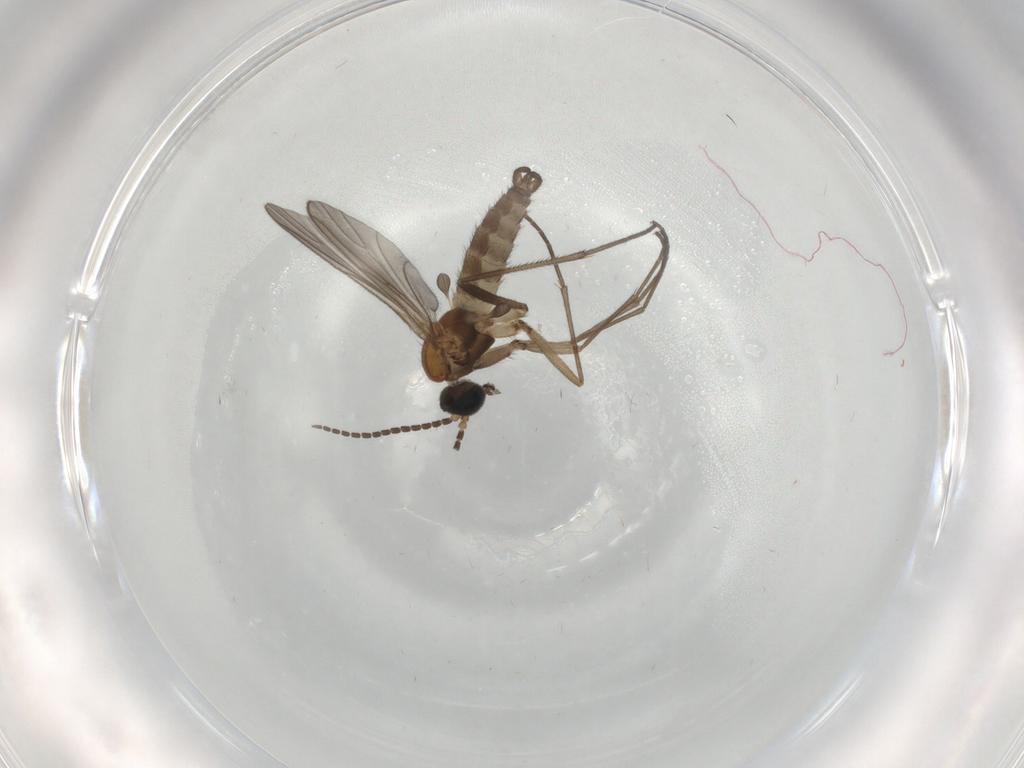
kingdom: Animalia
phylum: Arthropoda
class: Insecta
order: Diptera
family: Sciaridae
